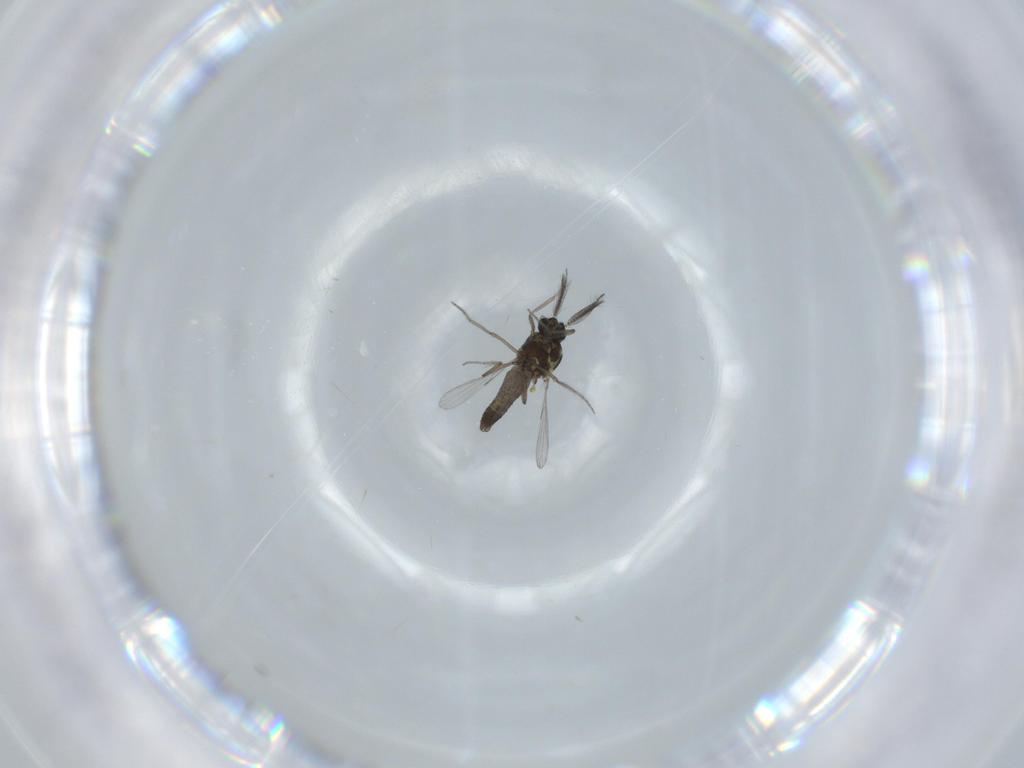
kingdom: Animalia
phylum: Arthropoda
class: Insecta
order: Diptera
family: Ceratopogonidae
